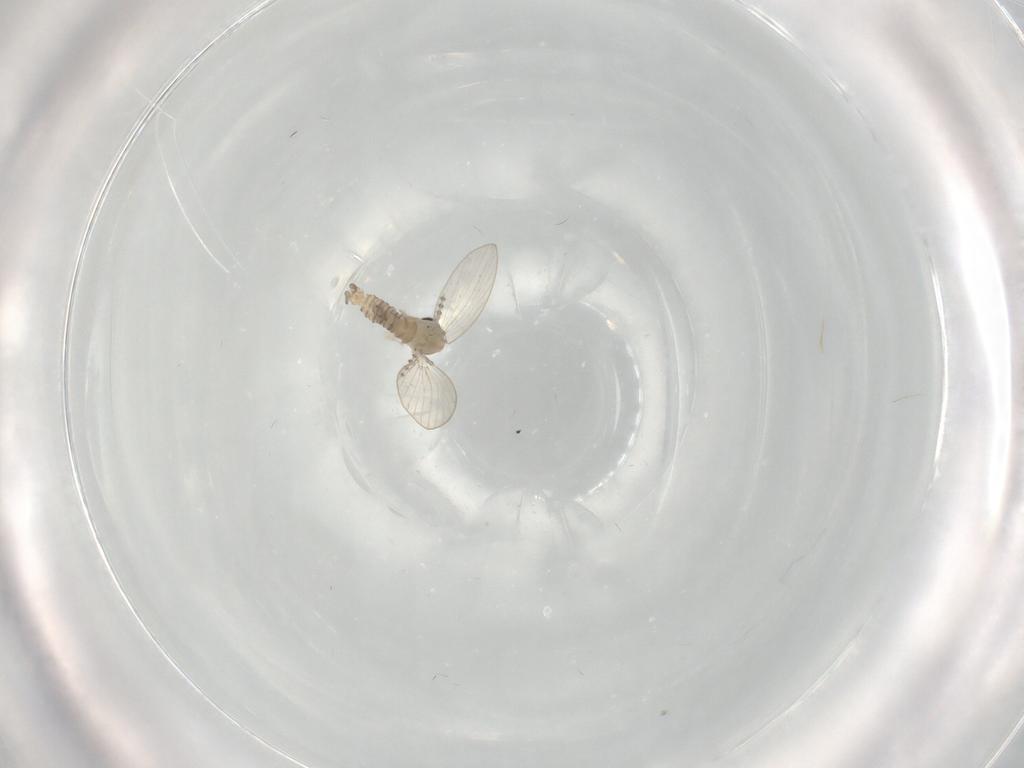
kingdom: Animalia
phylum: Arthropoda
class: Insecta
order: Diptera
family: Psychodidae
